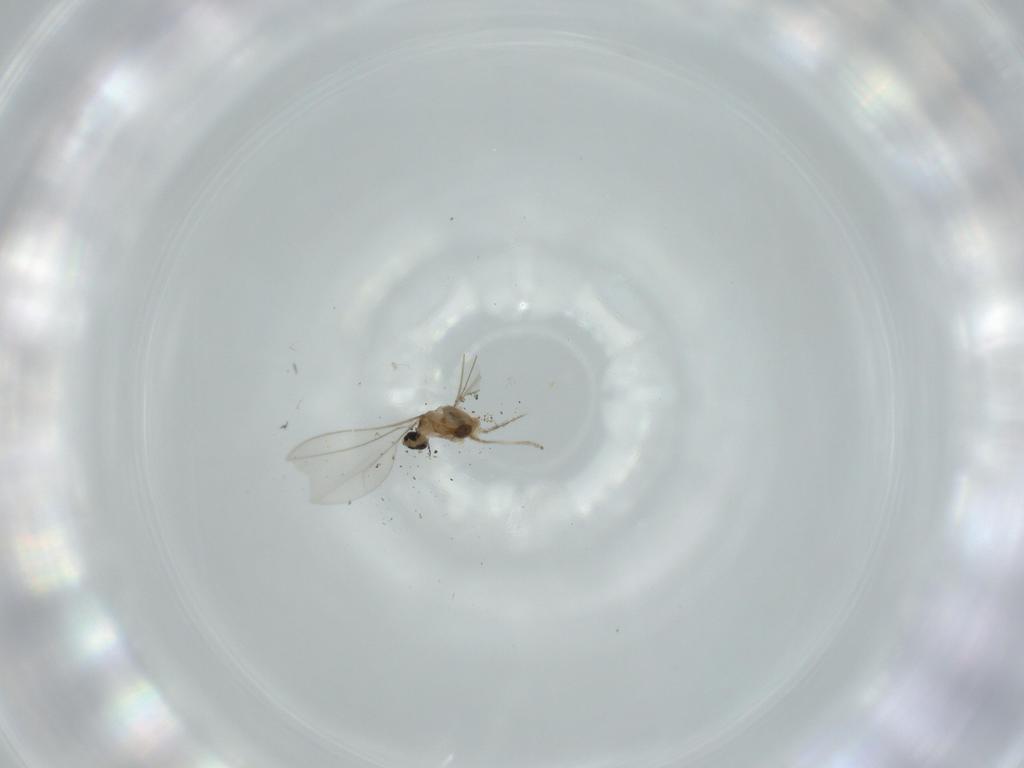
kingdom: Animalia
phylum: Arthropoda
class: Insecta
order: Diptera
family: Cecidomyiidae
